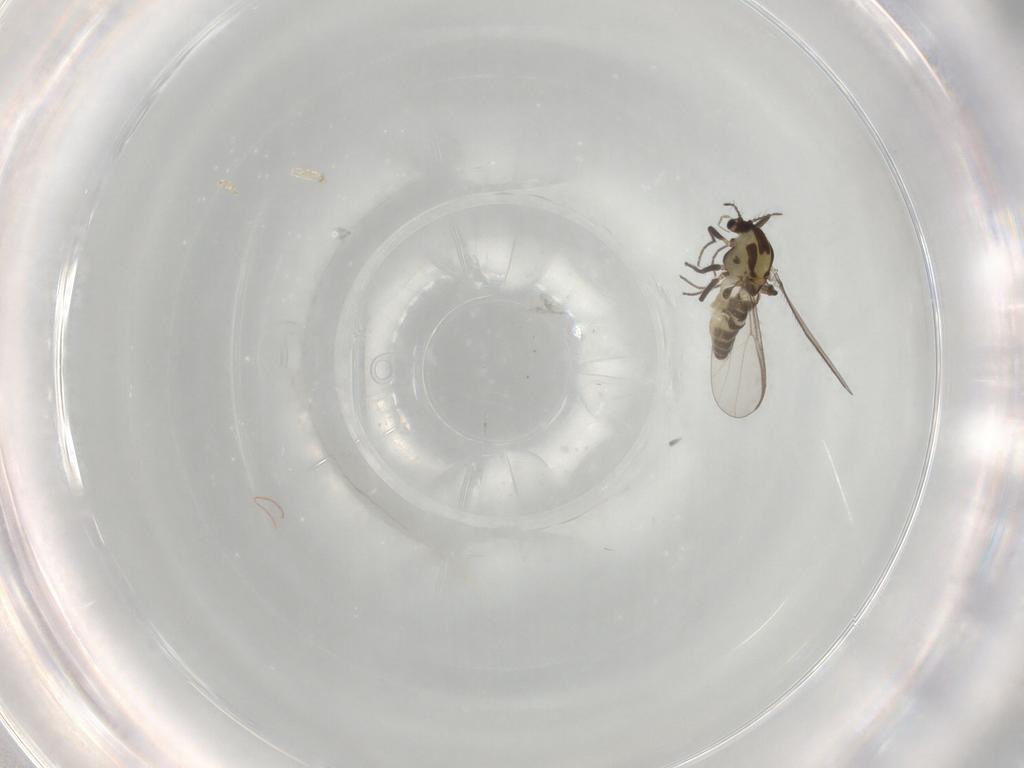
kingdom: Animalia
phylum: Arthropoda
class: Insecta
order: Diptera
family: Chironomidae
